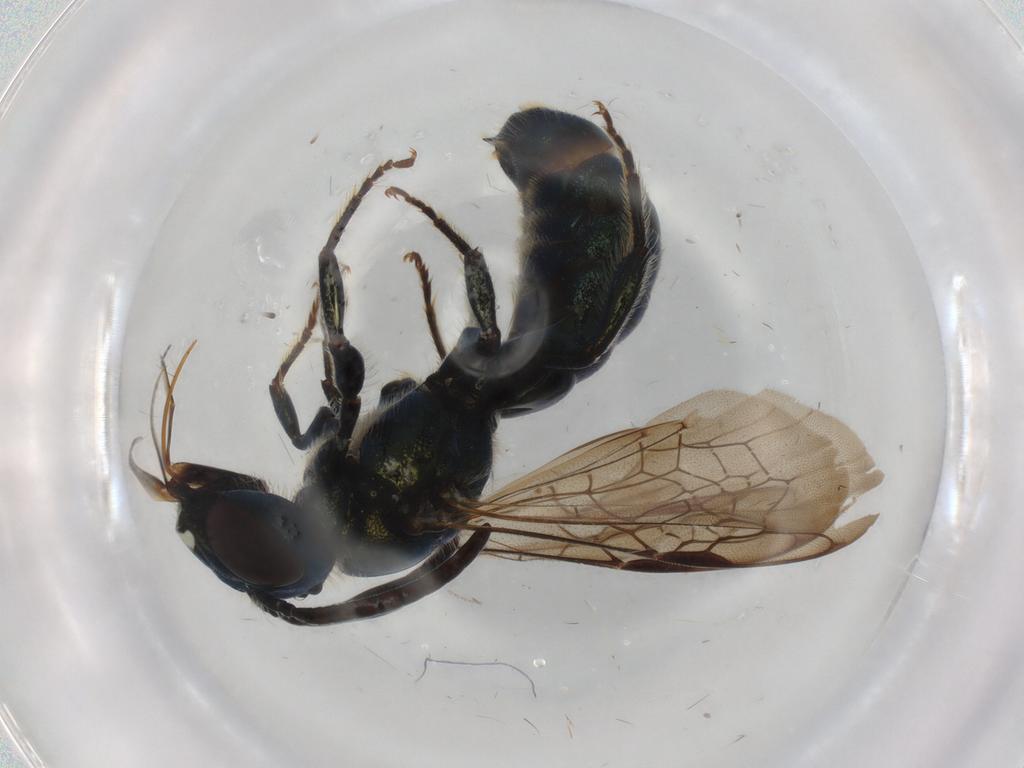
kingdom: Animalia
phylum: Arthropoda
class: Insecta
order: Hymenoptera
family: Apidae
